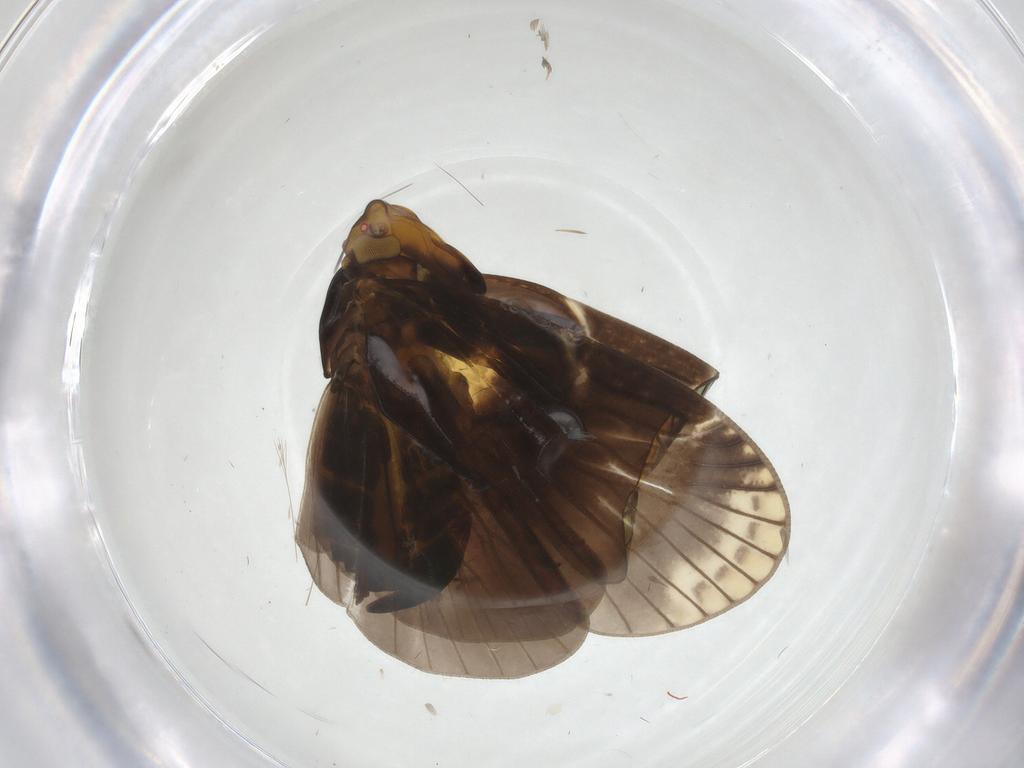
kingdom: Animalia
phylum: Arthropoda
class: Insecta
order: Hemiptera
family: Cixiidae
